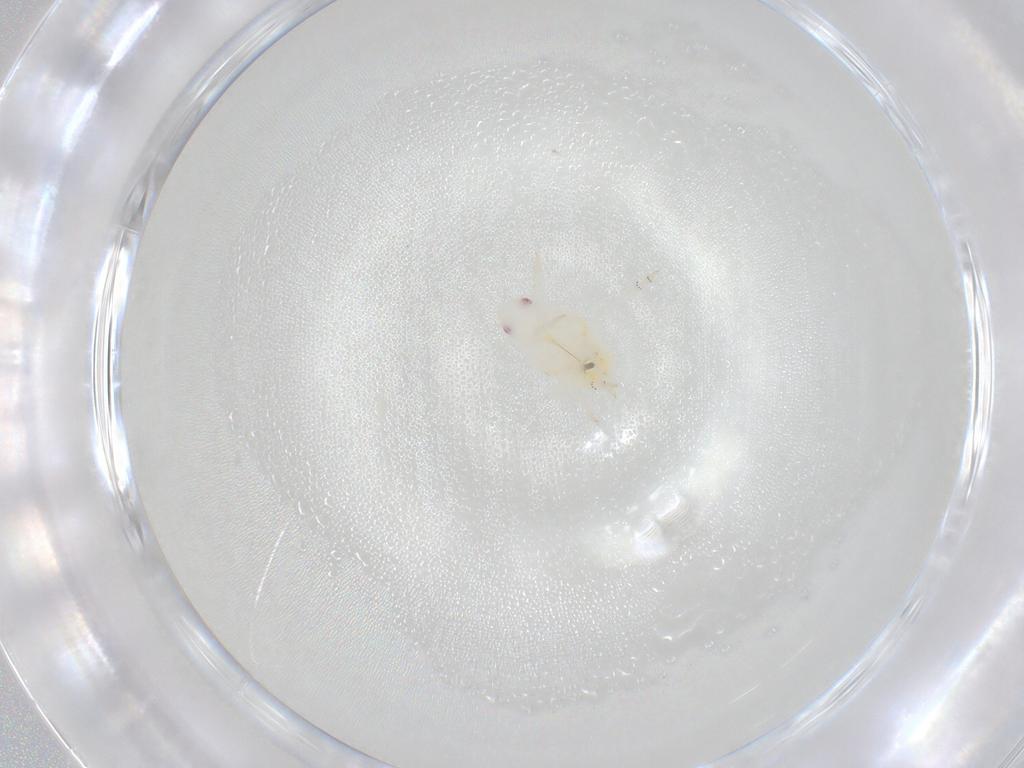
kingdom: Animalia
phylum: Arthropoda
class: Insecta
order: Hemiptera
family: Flatidae
